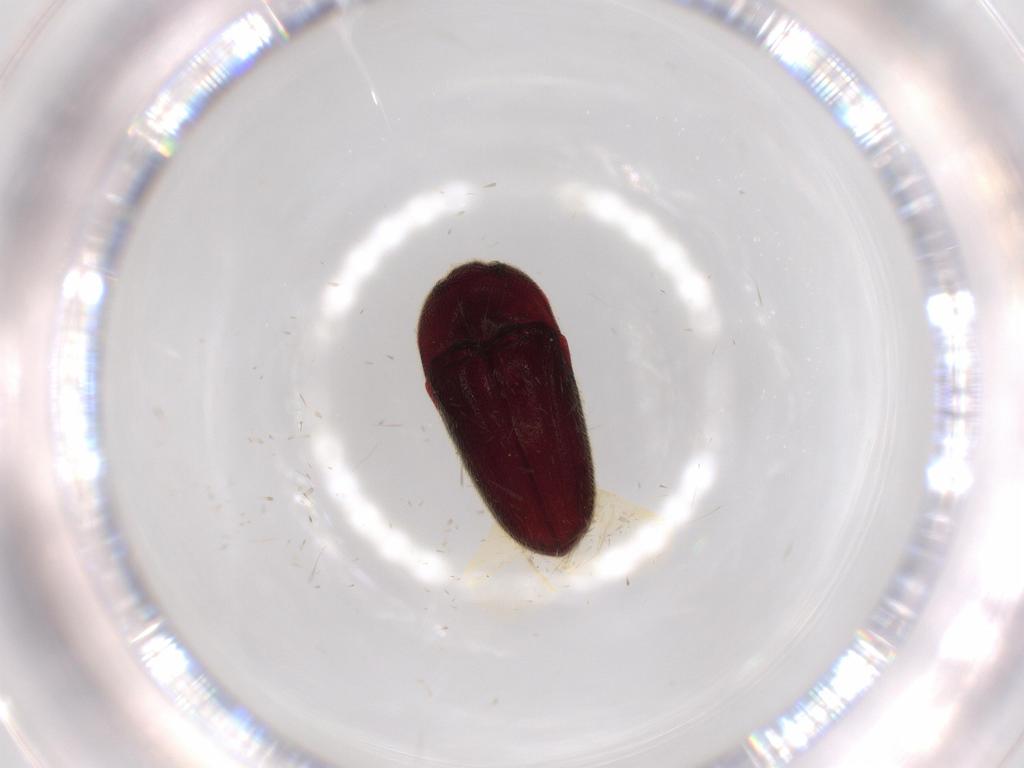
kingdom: Animalia
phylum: Arthropoda
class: Insecta
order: Coleoptera
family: Throscidae
